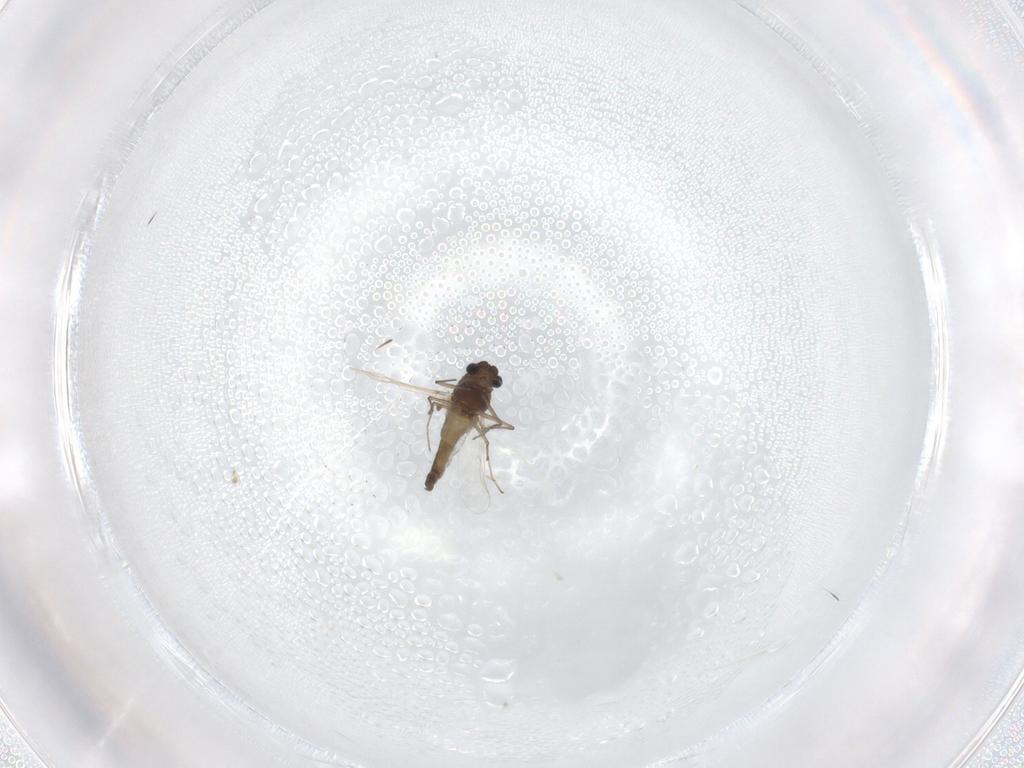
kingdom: Animalia
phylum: Arthropoda
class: Insecta
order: Diptera
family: Chironomidae
